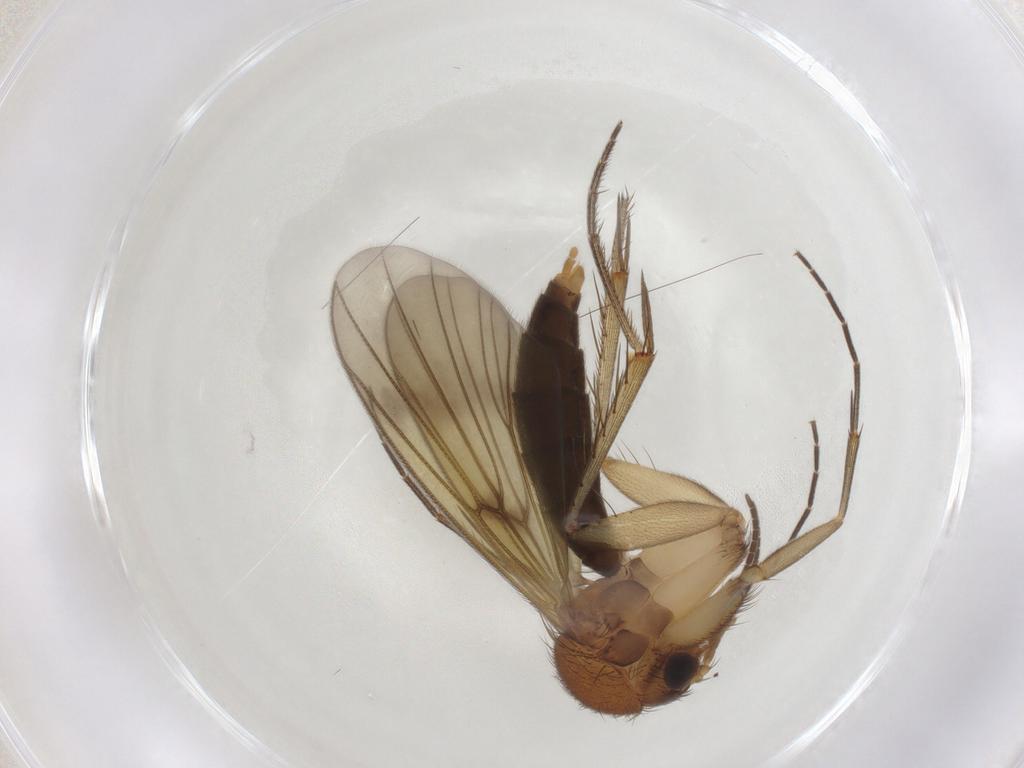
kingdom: Animalia
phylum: Arthropoda
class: Insecta
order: Diptera
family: Mycetophilidae
